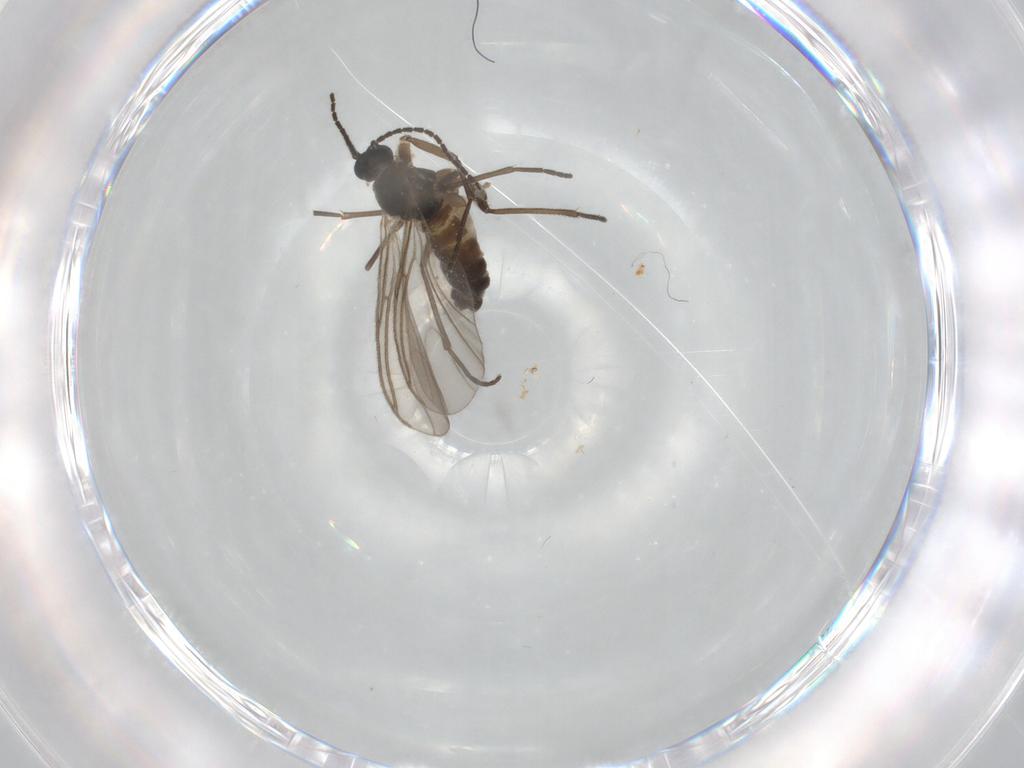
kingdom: Animalia
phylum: Arthropoda
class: Insecta
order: Diptera
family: Sciaridae
